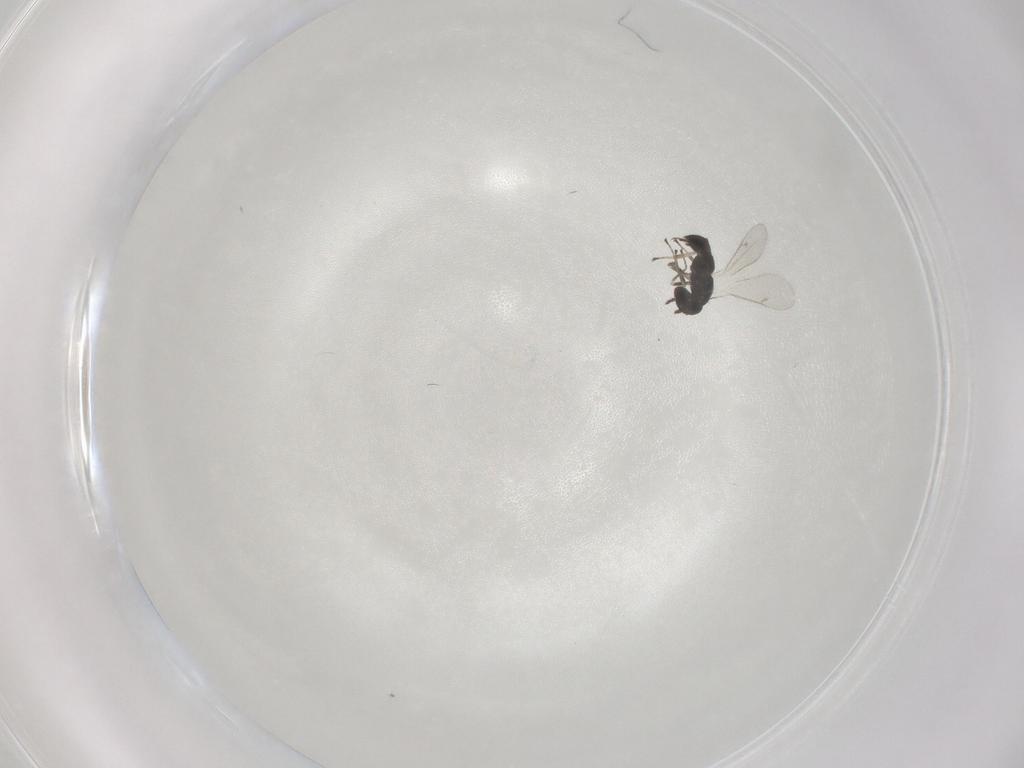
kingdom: Animalia
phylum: Arthropoda
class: Insecta
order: Hymenoptera
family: Eulophidae
